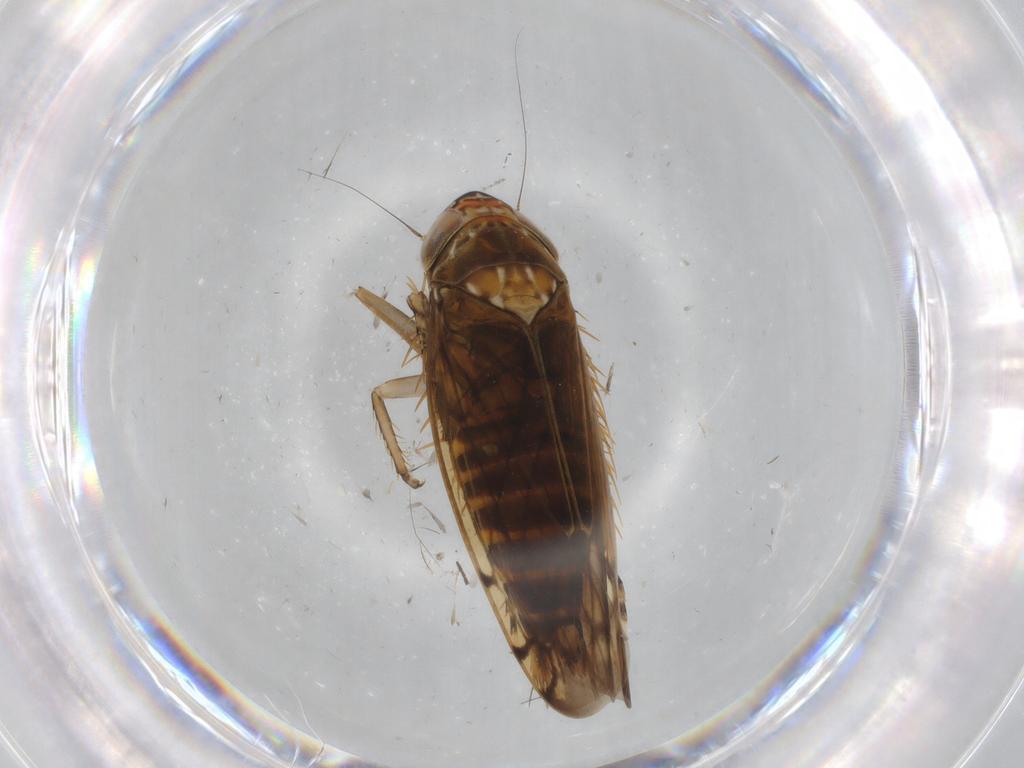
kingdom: Animalia
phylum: Arthropoda
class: Insecta
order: Hemiptera
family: Cicadellidae
